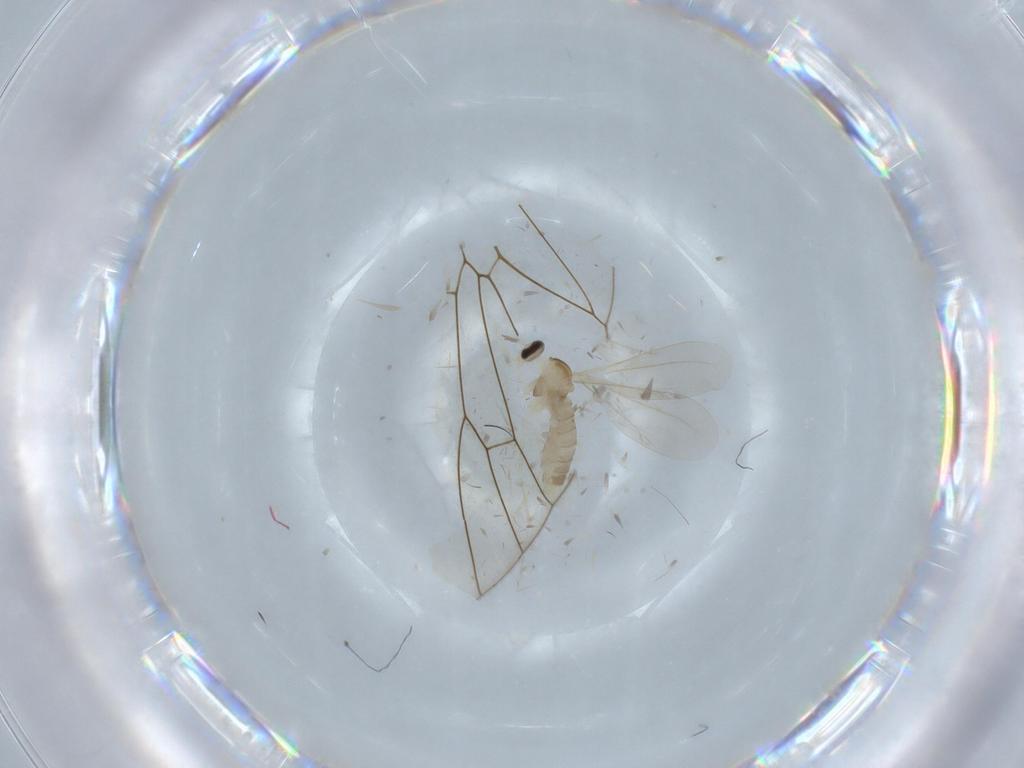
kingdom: Animalia
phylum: Arthropoda
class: Insecta
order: Diptera
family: Cecidomyiidae
